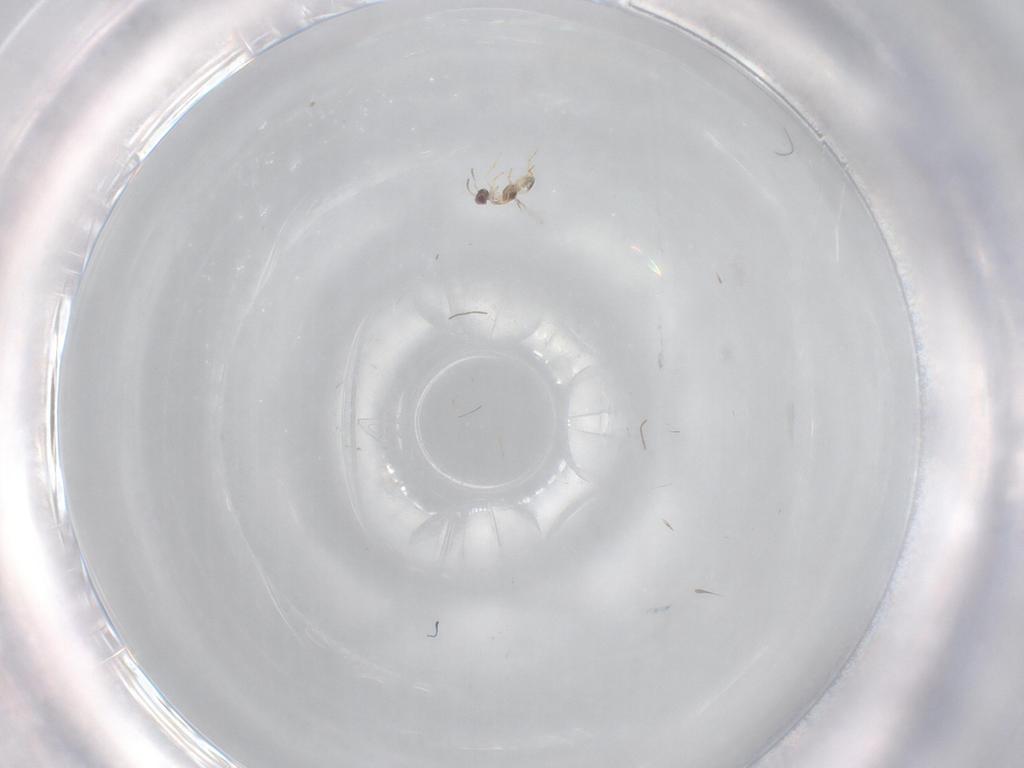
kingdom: Animalia
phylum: Arthropoda
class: Insecta
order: Hymenoptera
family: Mymaridae
